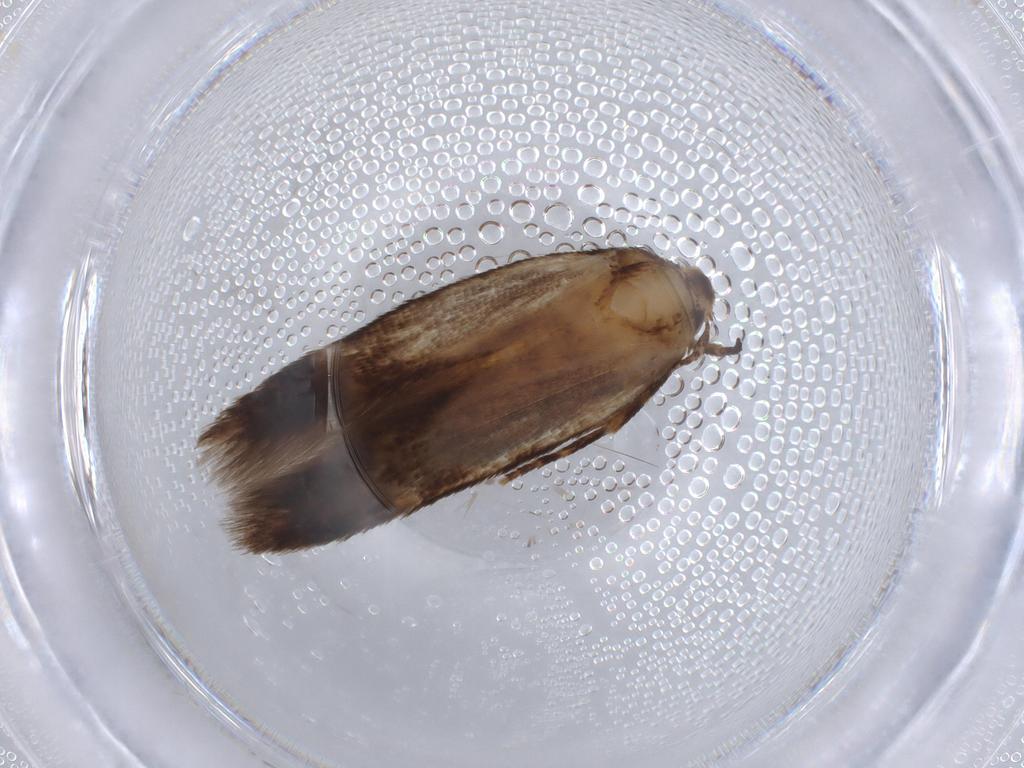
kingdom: Animalia
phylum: Arthropoda
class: Insecta
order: Lepidoptera
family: Crambidae
